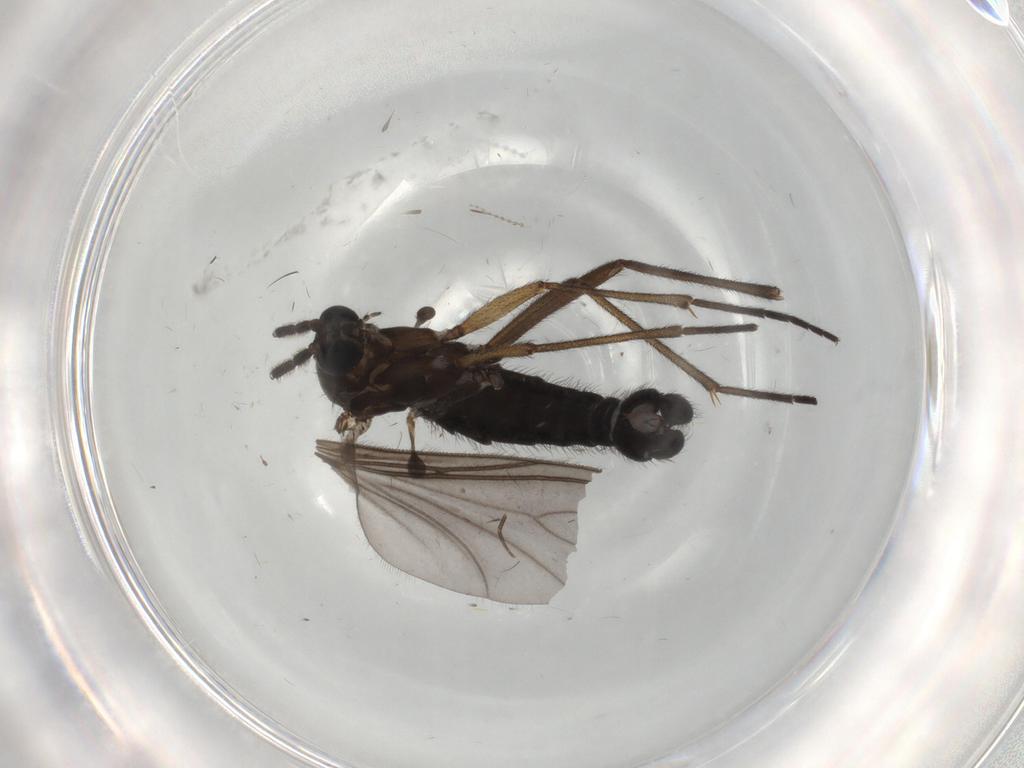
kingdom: Animalia
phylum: Arthropoda
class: Insecta
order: Diptera
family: Sciaridae
